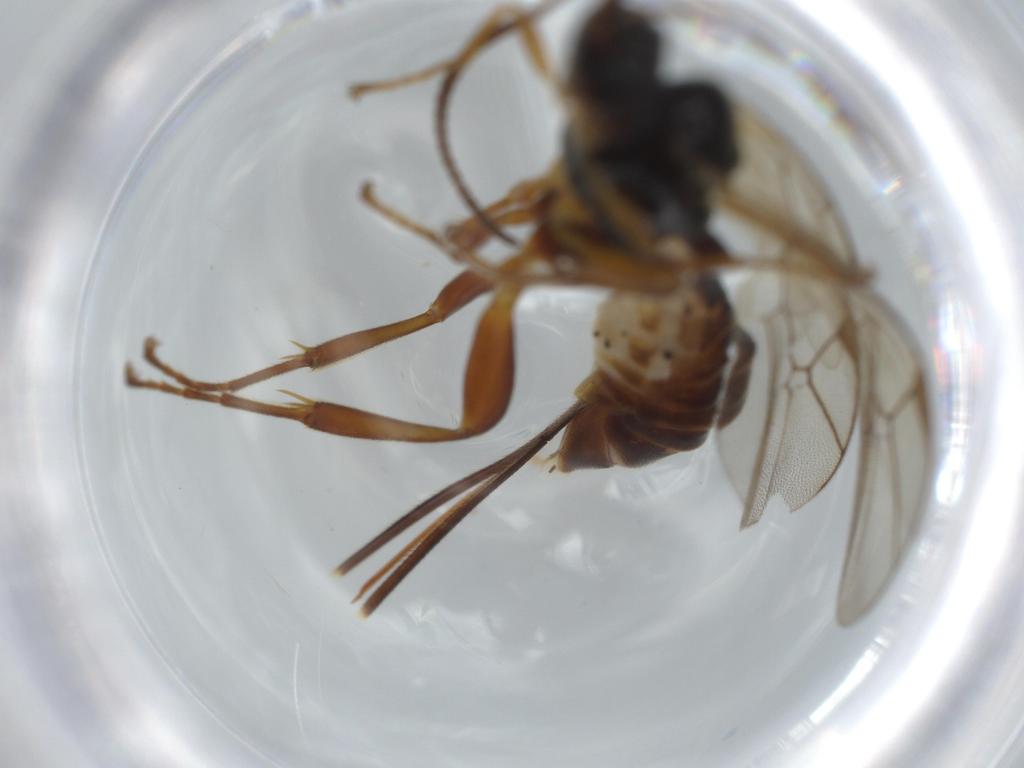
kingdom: Animalia
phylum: Arthropoda
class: Insecta
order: Hymenoptera
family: Ichneumonidae
